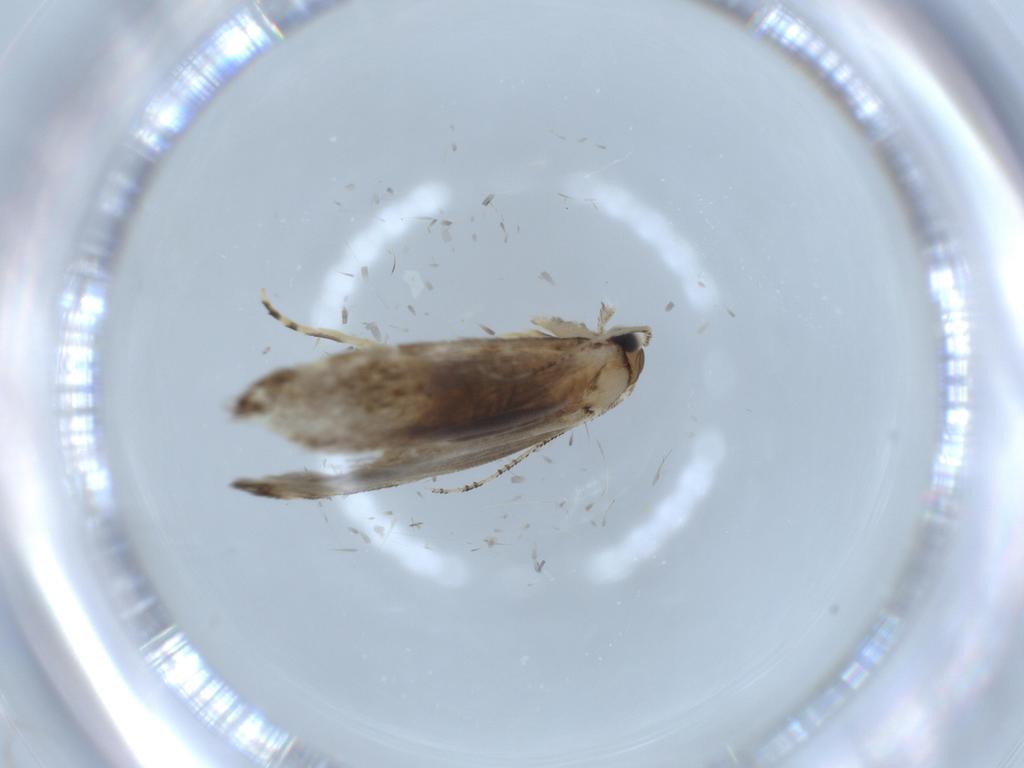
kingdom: Animalia
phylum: Arthropoda
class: Insecta
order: Lepidoptera
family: Tineidae
